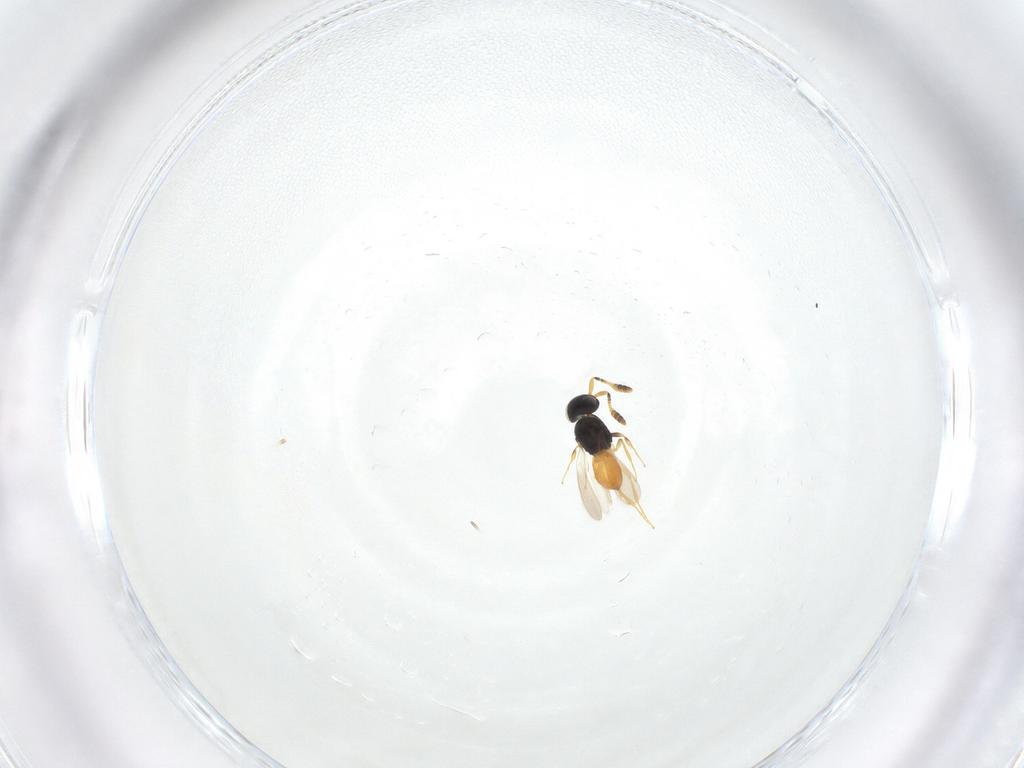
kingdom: Animalia
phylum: Arthropoda
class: Insecta
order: Hymenoptera
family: Scelionidae
